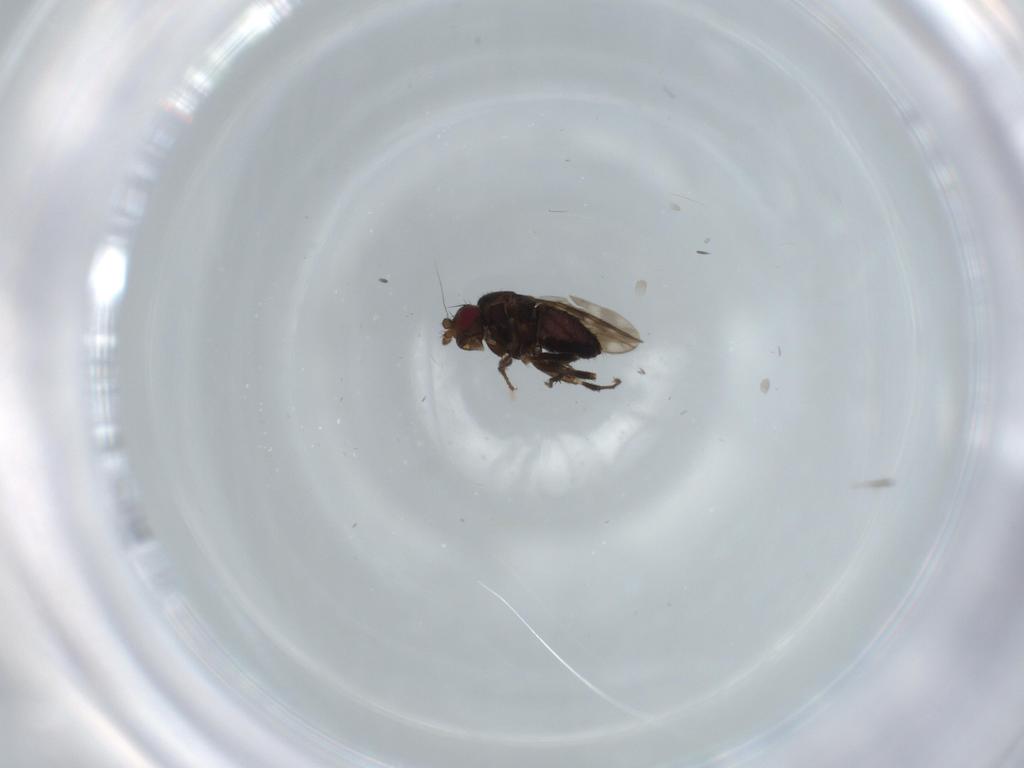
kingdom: Animalia
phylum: Arthropoda
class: Insecta
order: Diptera
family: Sphaeroceridae
